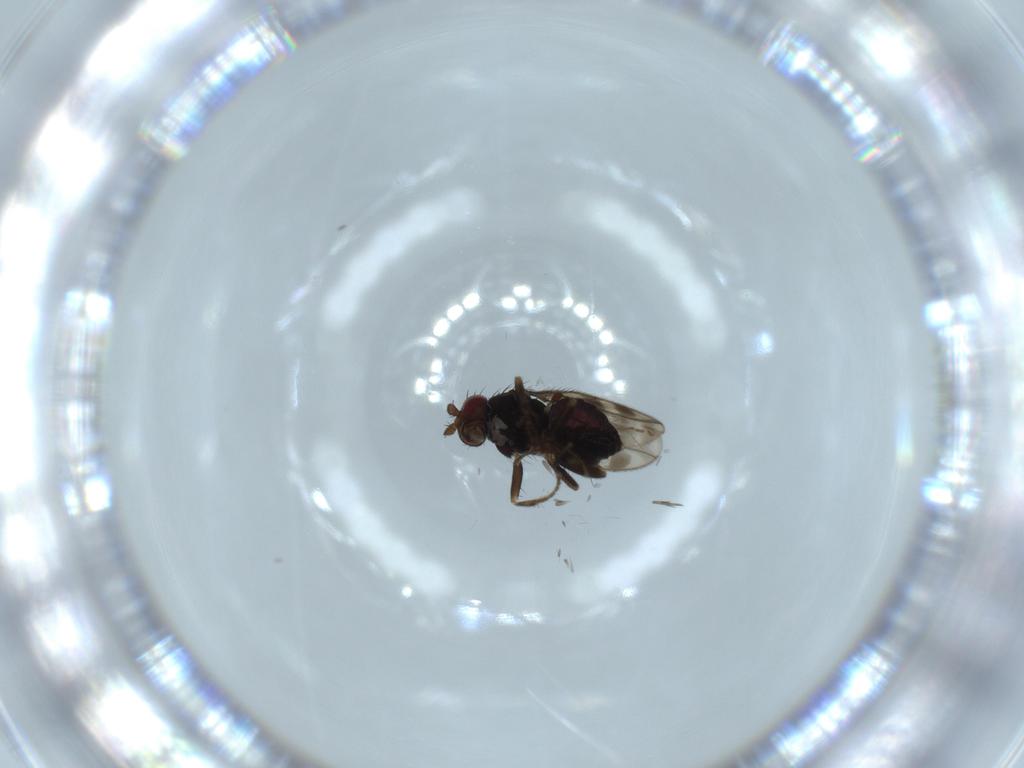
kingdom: Animalia
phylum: Arthropoda
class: Insecta
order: Diptera
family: Sphaeroceridae
